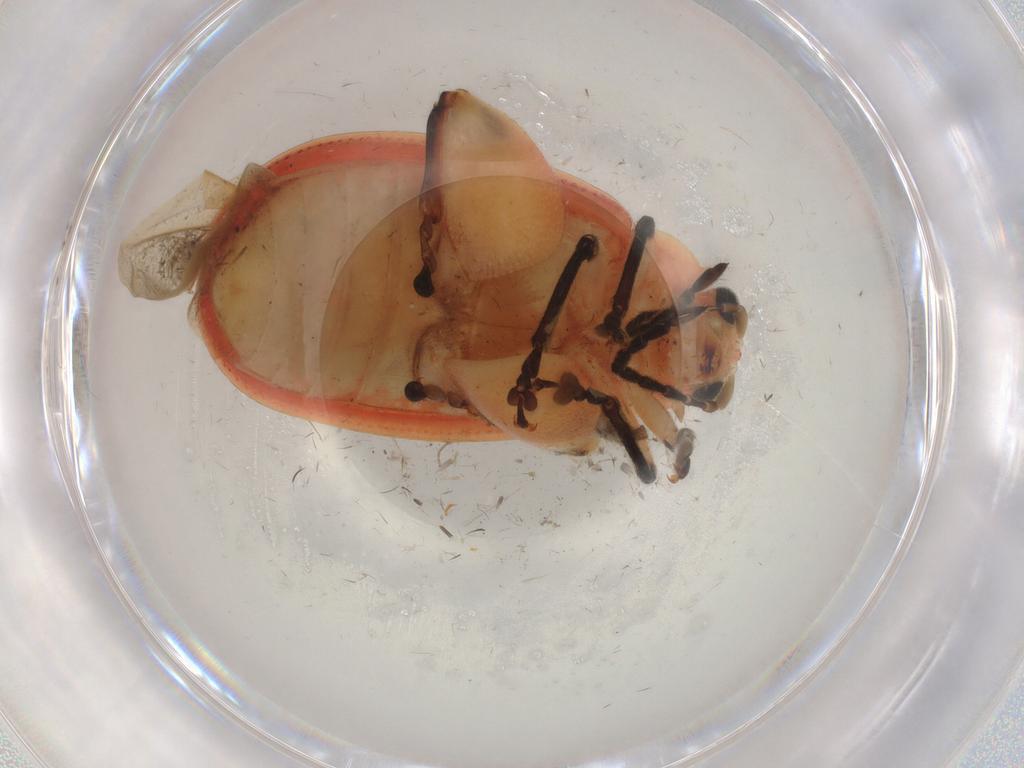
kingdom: Animalia
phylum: Arthropoda
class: Insecta
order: Coleoptera
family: Chrysomelidae
